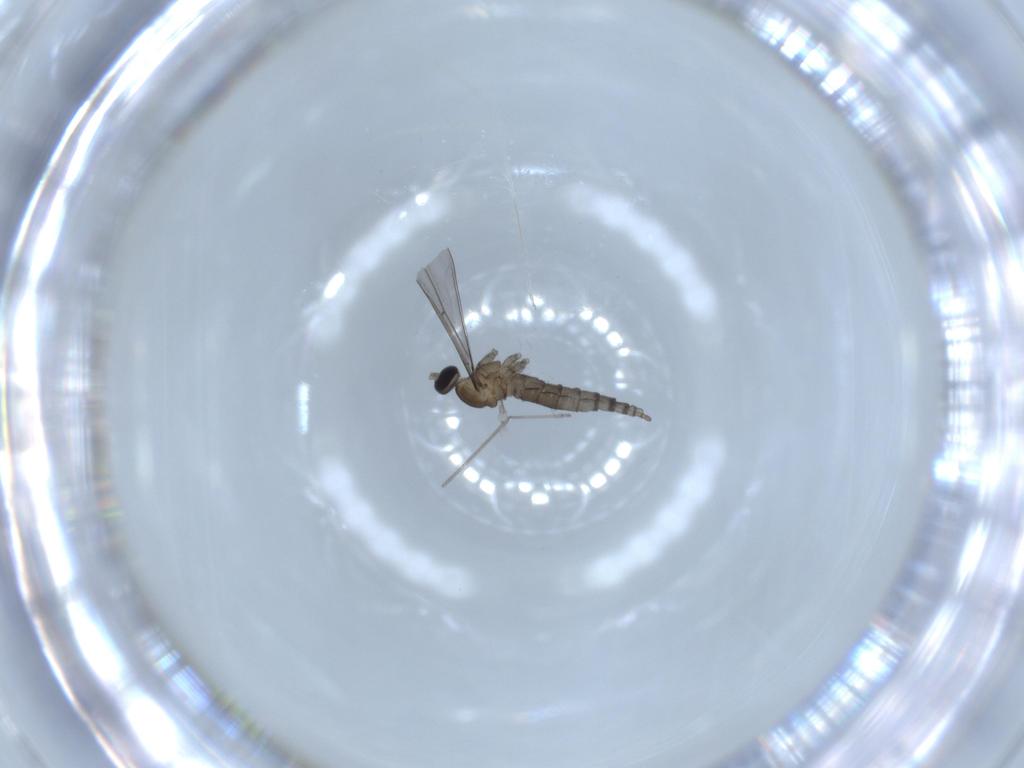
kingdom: Animalia
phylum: Arthropoda
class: Insecta
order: Diptera
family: Cecidomyiidae
